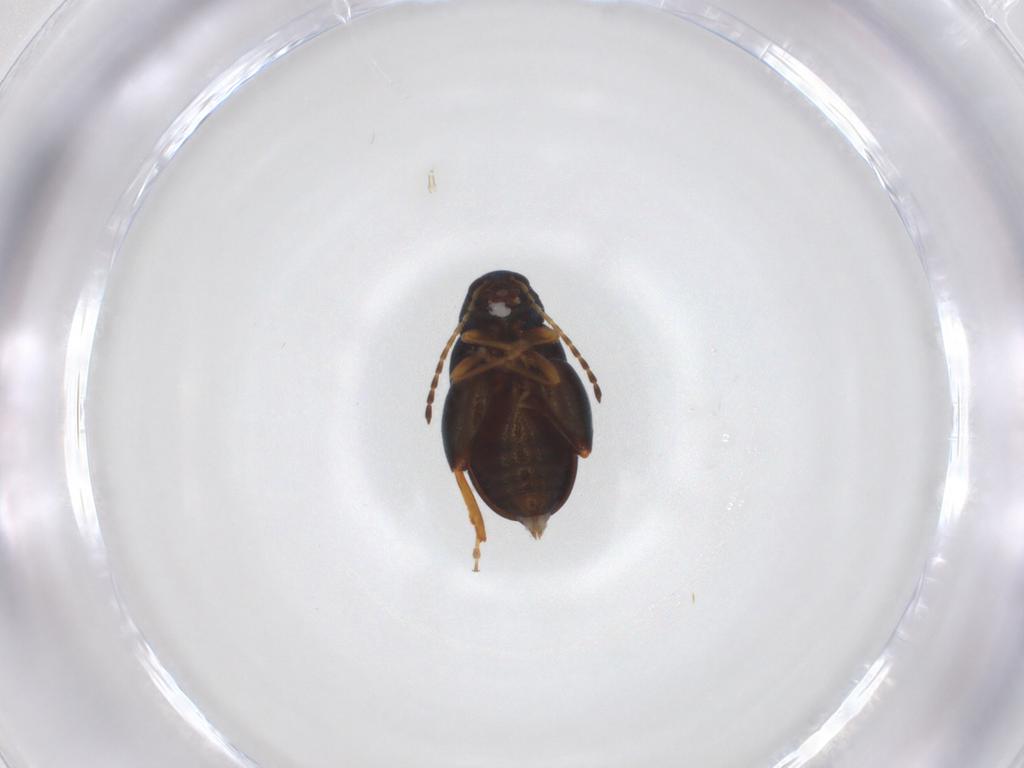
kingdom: Animalia
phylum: Arthropoda
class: Insecta
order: Coleoptera
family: Chrysomelidae
